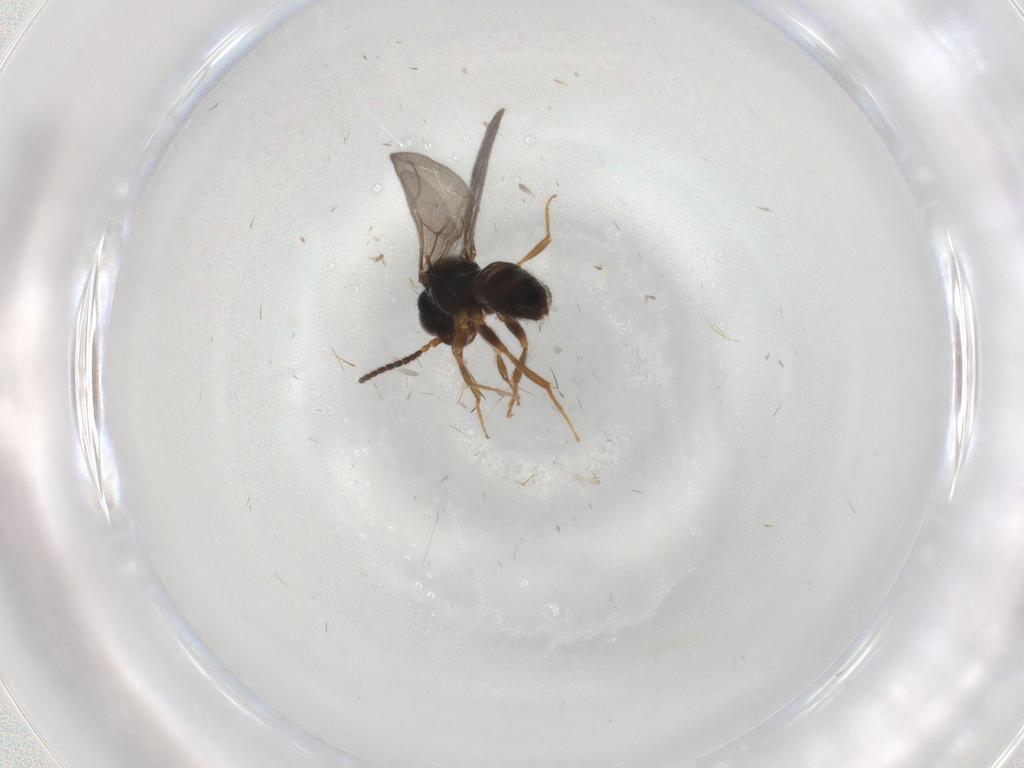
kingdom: Animalia
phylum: Arthropoda
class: Insecta
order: Hymenoptera
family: Bethylidae
